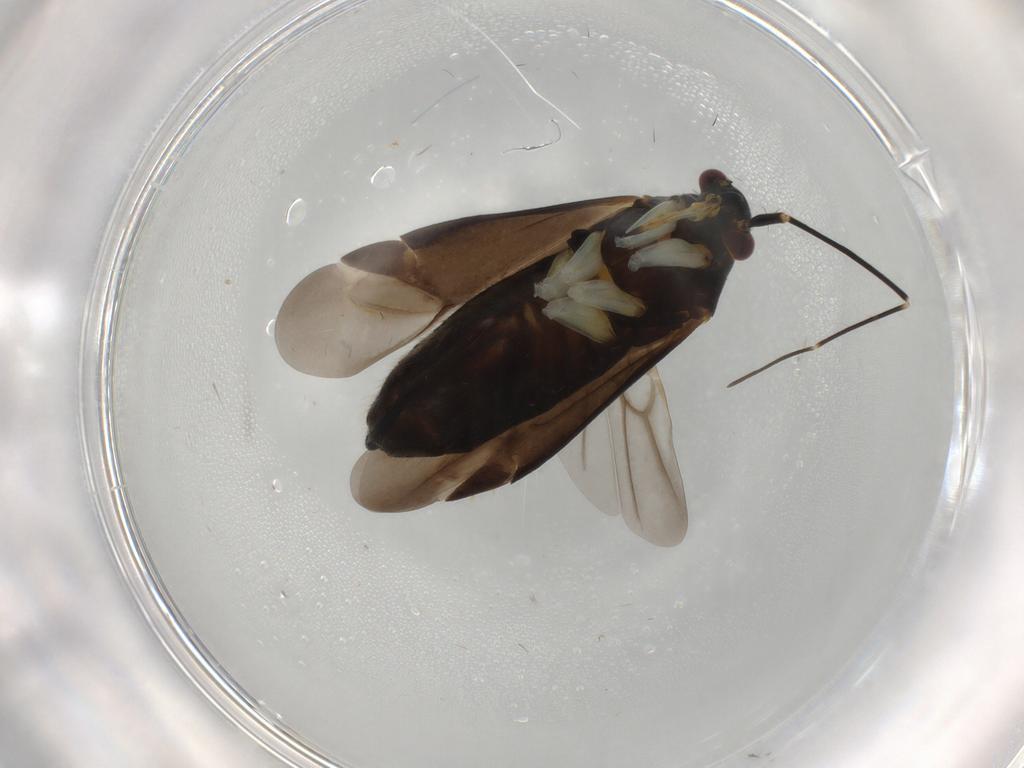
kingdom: Animalia
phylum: Arthropoda
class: Insecta
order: Hemiptera
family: Miridae
